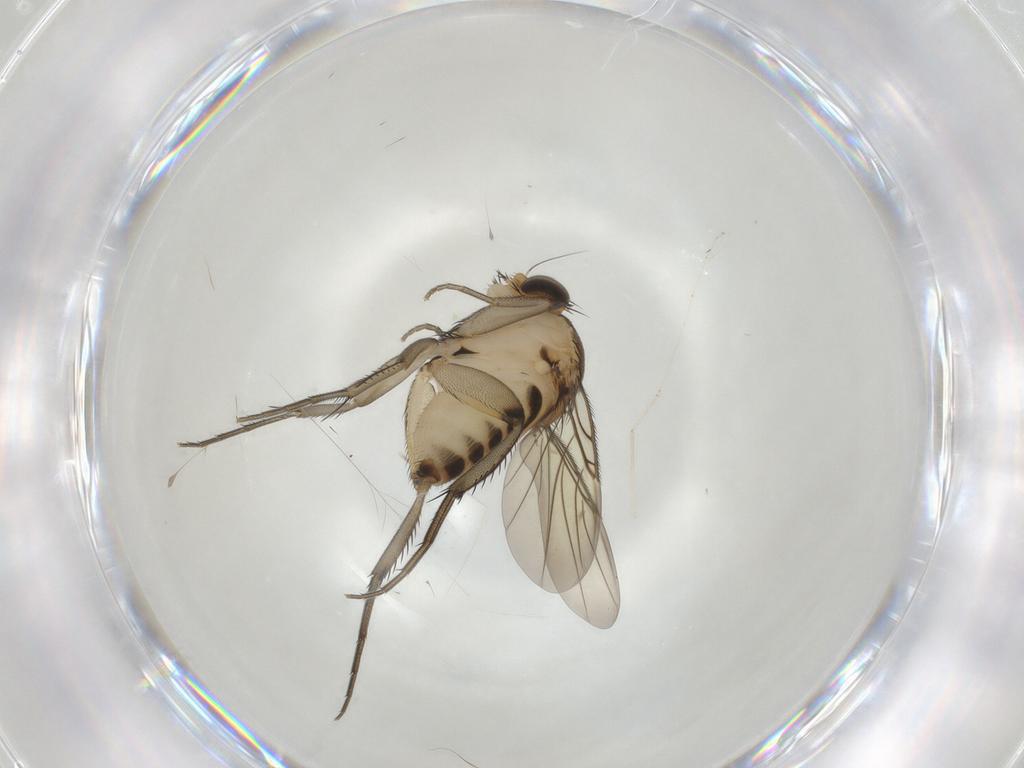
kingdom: Animalia
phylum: Arthropoda
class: Insecta
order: Diptera
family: Phoridae
